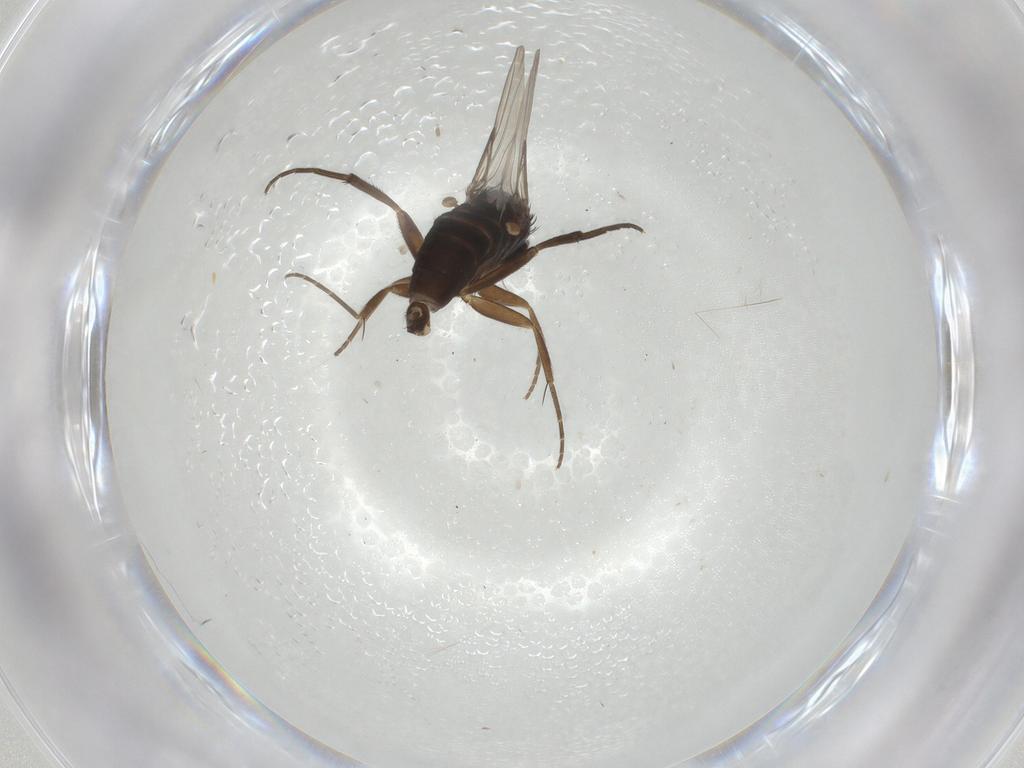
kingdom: Animalia
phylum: Arthropoda
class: Insecta
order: Diptera
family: Phoridae
